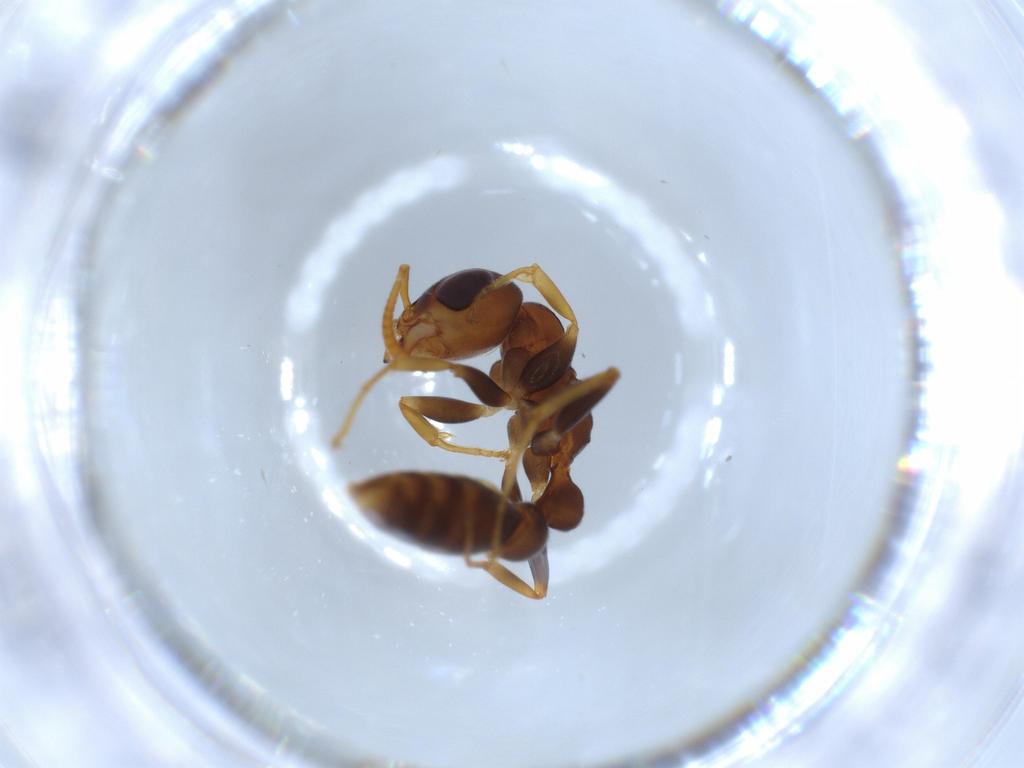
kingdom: Animalia
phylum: Arthropoda
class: Insecta
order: Hymenoptera
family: Formicidae
